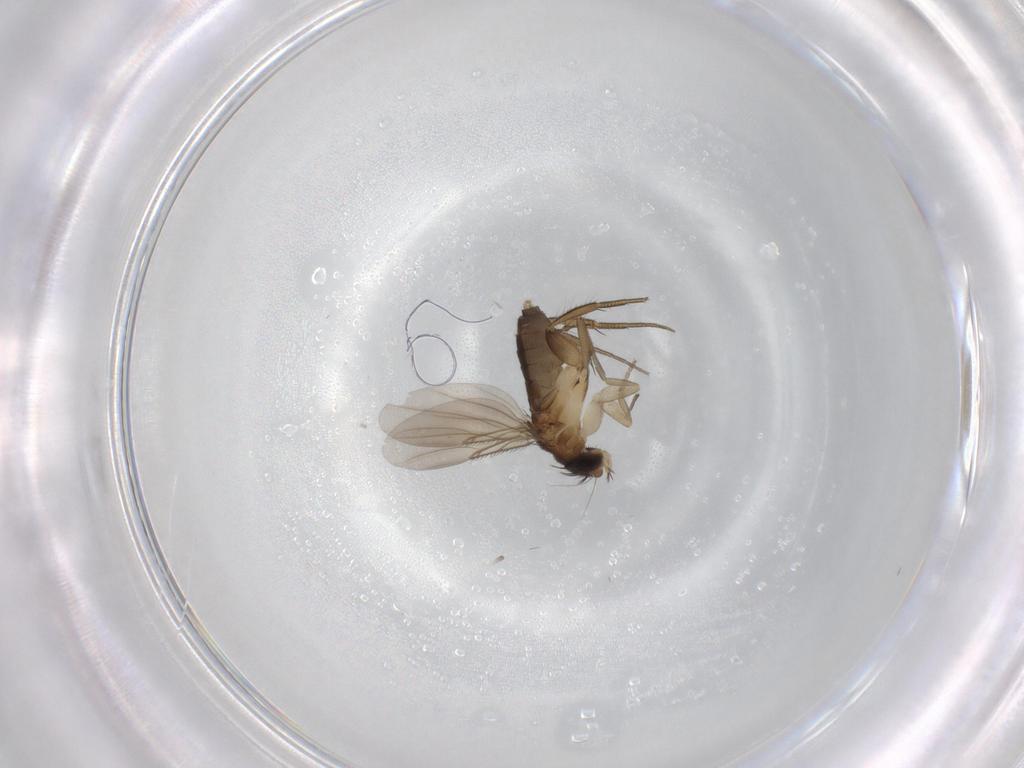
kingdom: Animalia
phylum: Arthropoda
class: Insecta
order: Diptera
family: Phoridae
